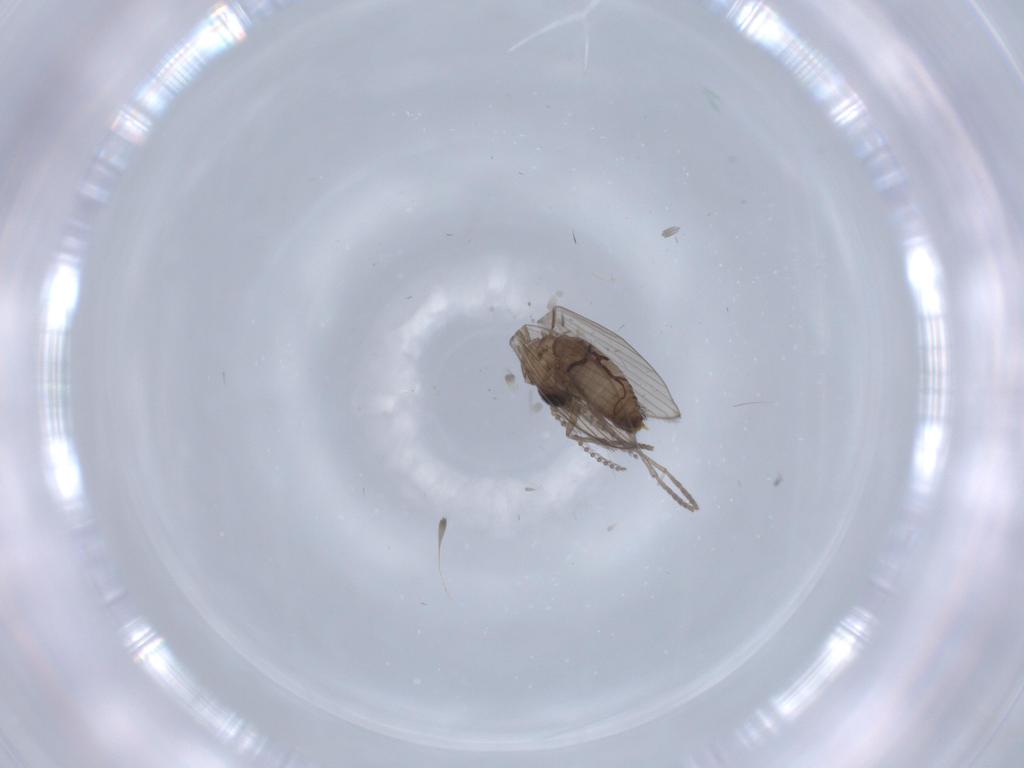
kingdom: Animalia
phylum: Arthropoda
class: Insecta
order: Diptera
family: Psychodidae
